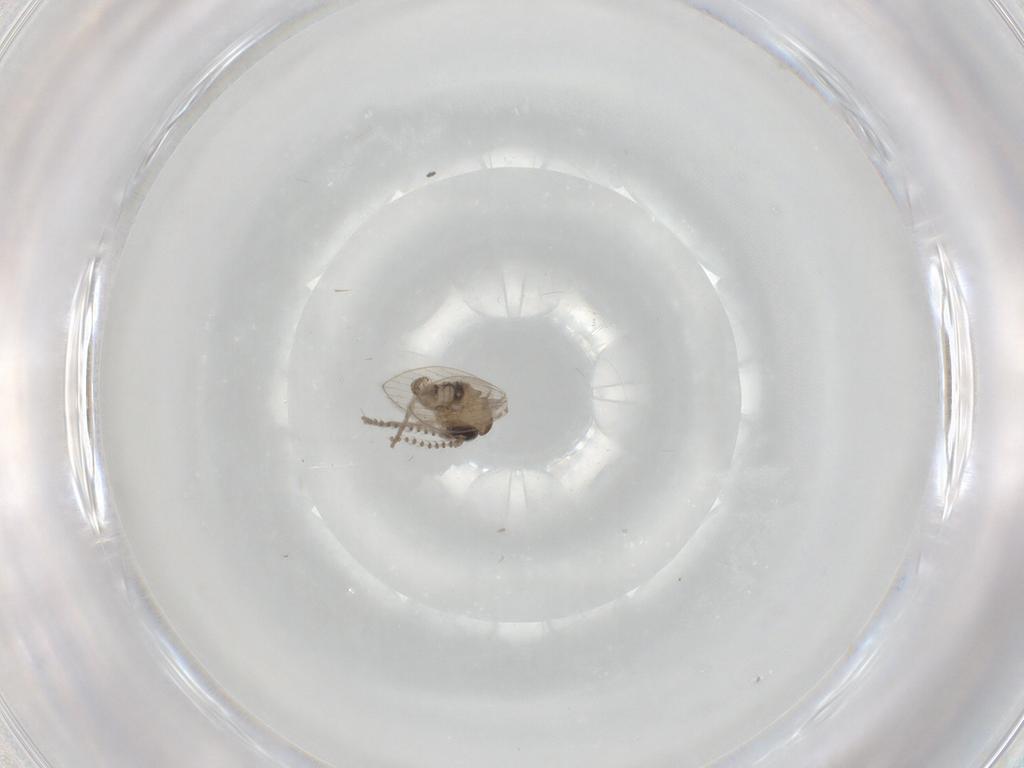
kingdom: Animalia
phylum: Arthropoda
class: Insecta
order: Diptera
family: Psychodidae
